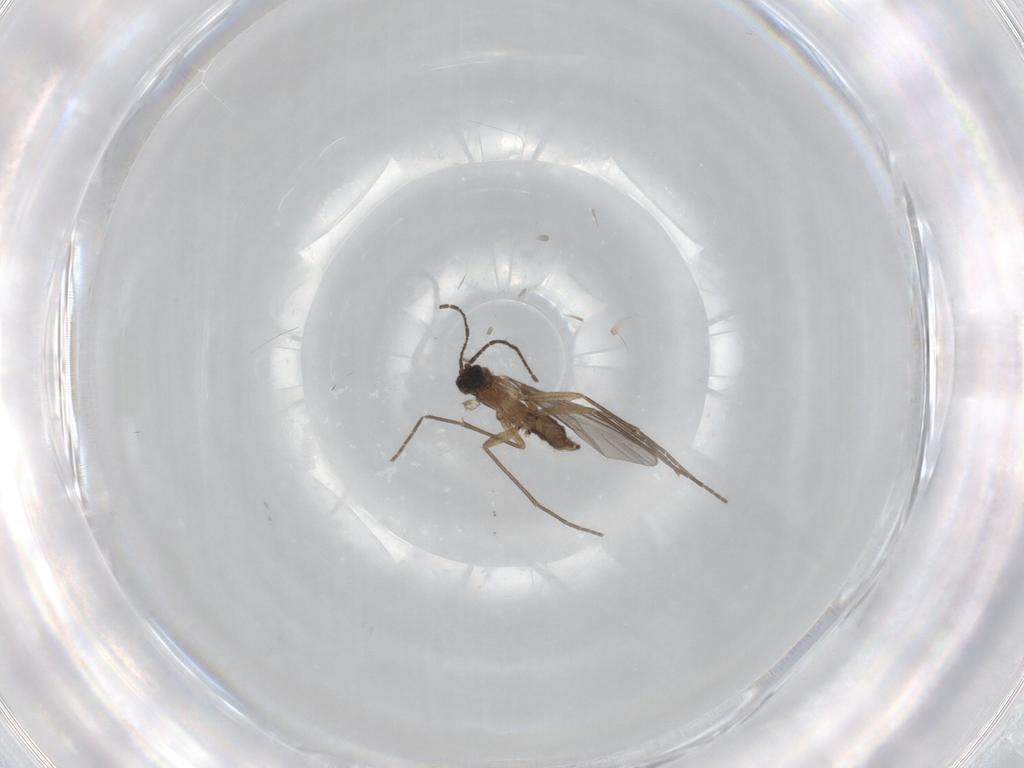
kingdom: Animalia
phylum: Arthropoda
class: Insecta
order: Diptera
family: Sciaridae
